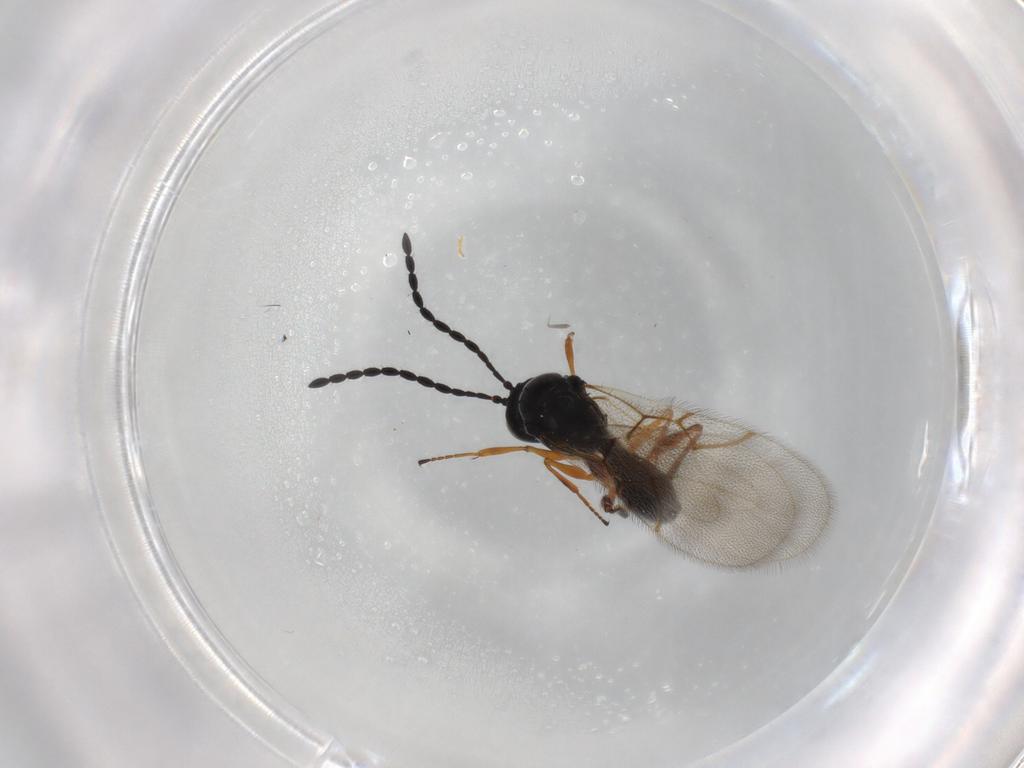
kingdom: Animalia
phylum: Arthropoda
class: Insecta
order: Hymenoptera
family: Figitidae
